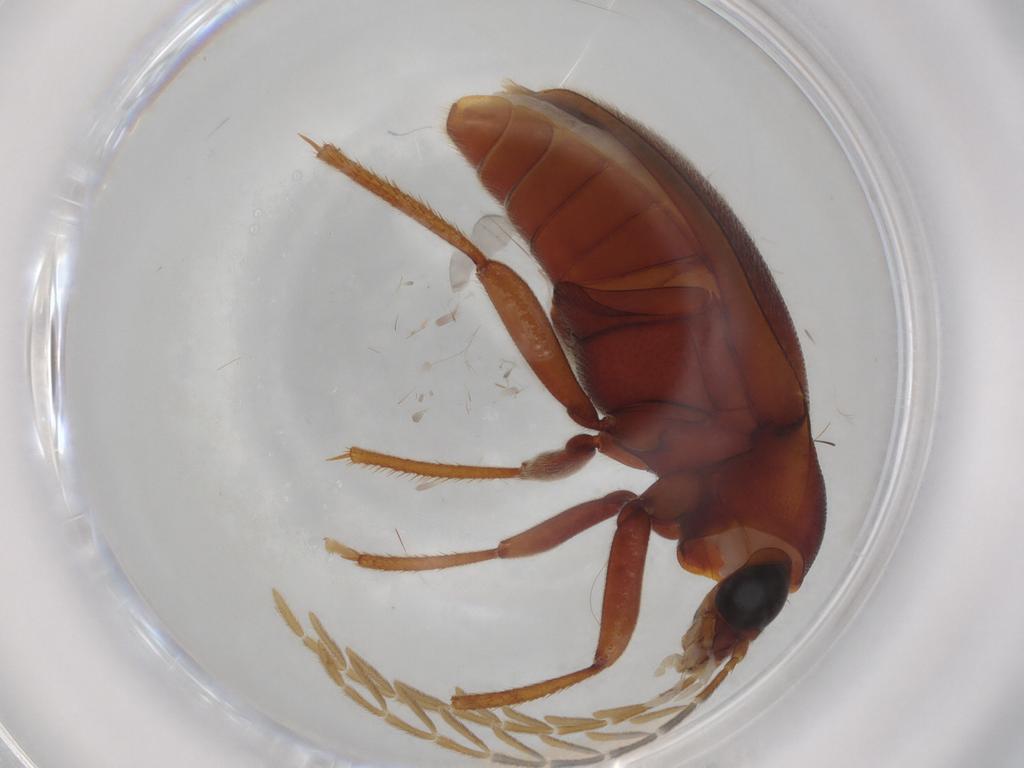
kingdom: Animalia
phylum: Arthropoda
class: Insecta
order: Coleoptera
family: Ptilodactylidae
